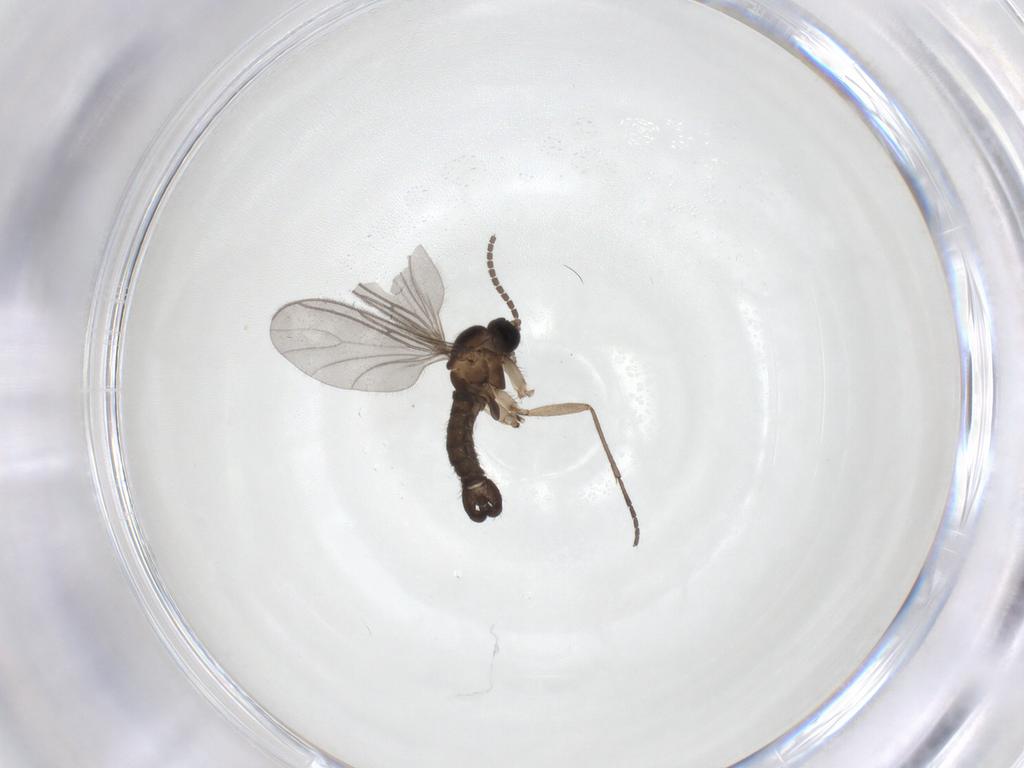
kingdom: Animalia
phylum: Arthropoda
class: Insecta
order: Diptera
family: Sciaridae
